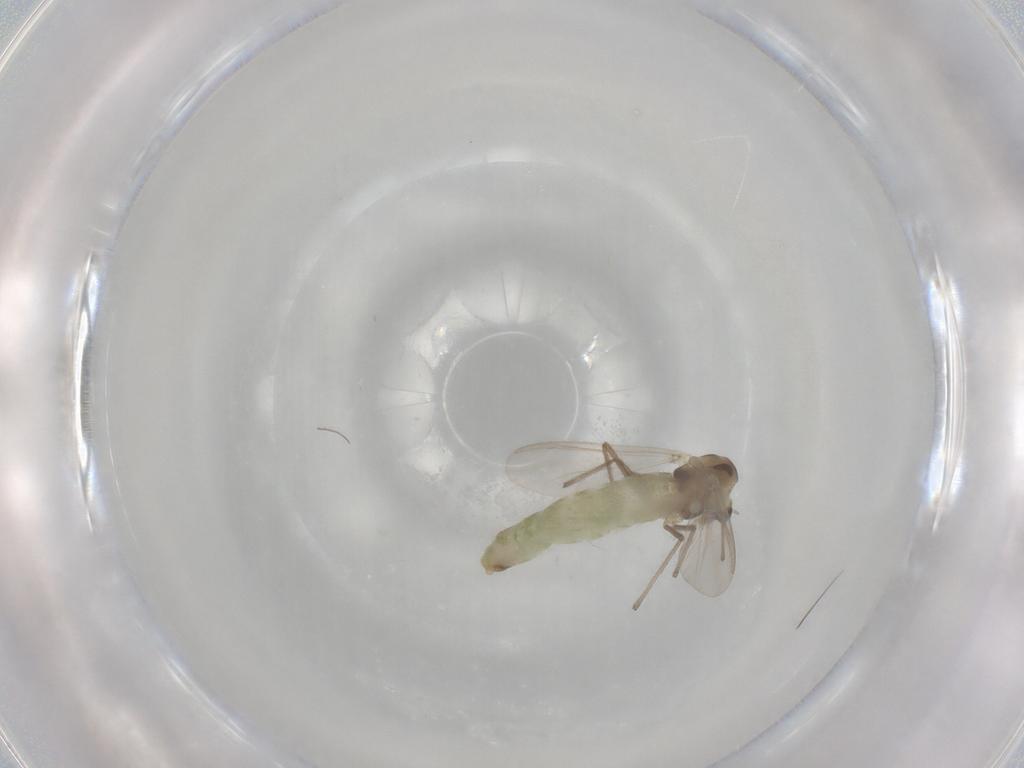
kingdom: Animalia
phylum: Arthropoda
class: Insecta
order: Diptera
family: Chironomidae
